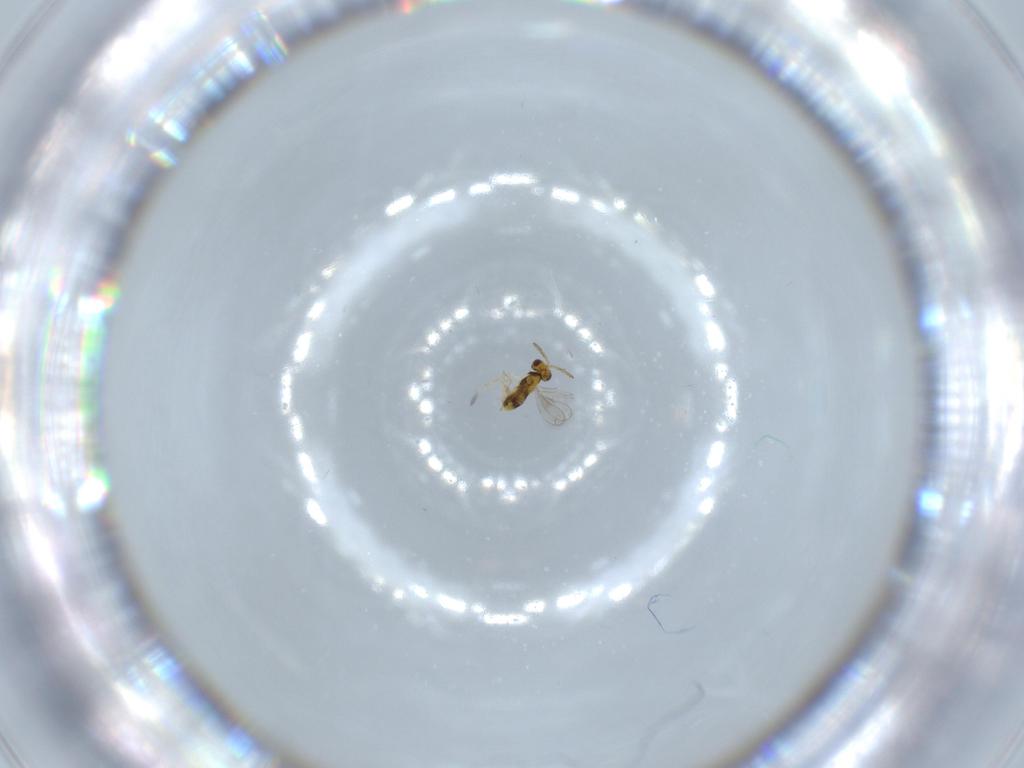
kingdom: Animalia
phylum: Arthropoda
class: Insecta
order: Hymenoptera
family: Aphelinidae
